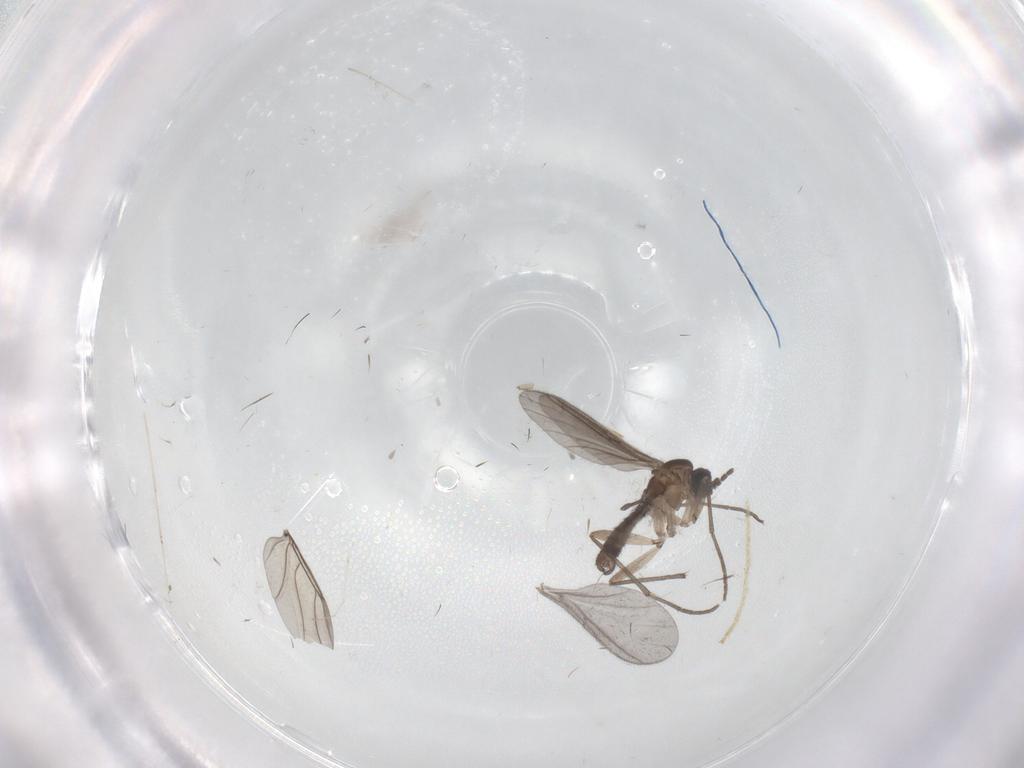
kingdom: Animalia
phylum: Arthropoda
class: Insecta
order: Diptera
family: Sciaridae
